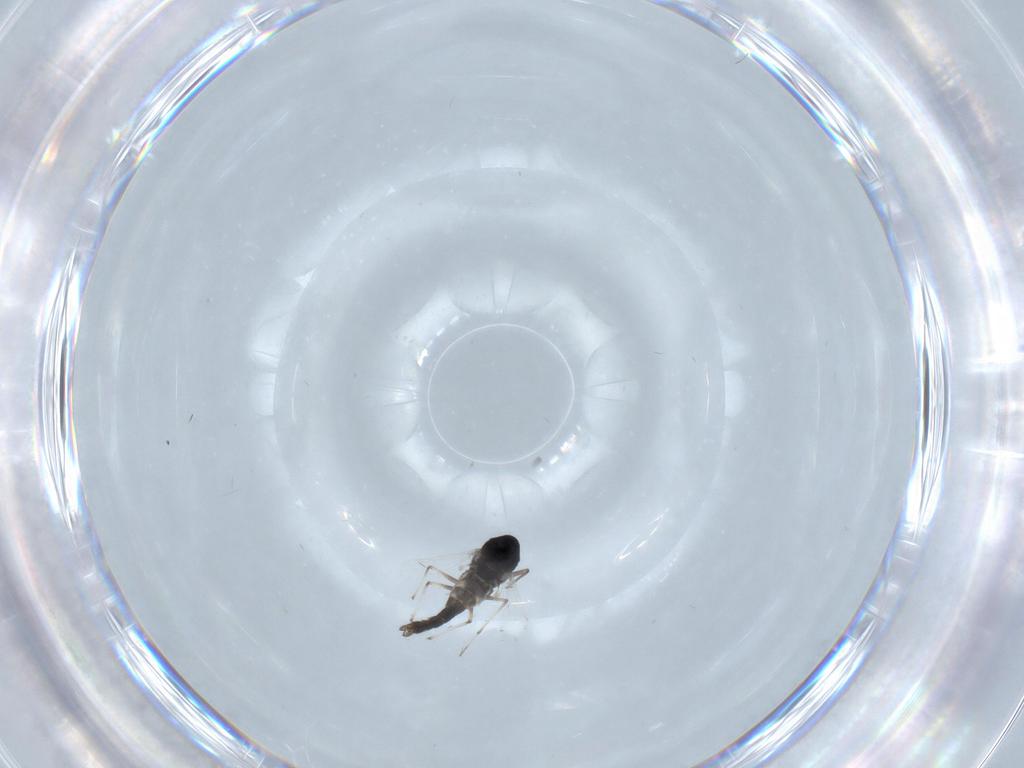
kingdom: Animalia
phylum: Arthropoda
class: Insecta
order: Diptera
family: Chironomidae
